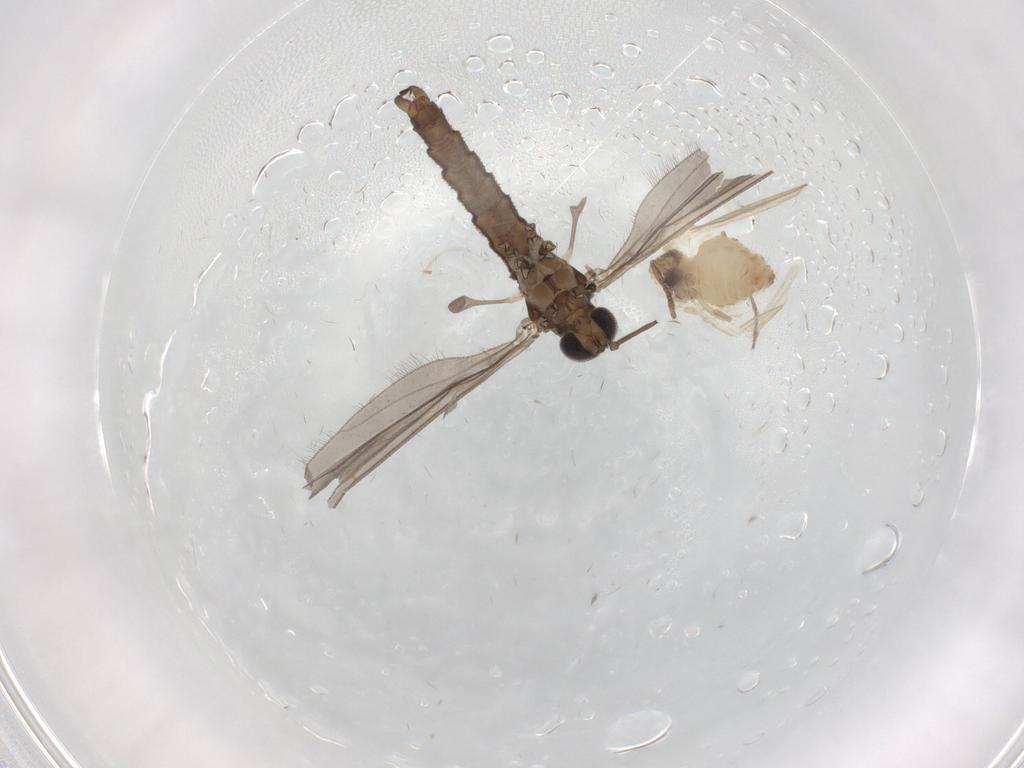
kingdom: Animalia
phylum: Arthropoda
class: Insecta
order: Diptera
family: Psychodidae
